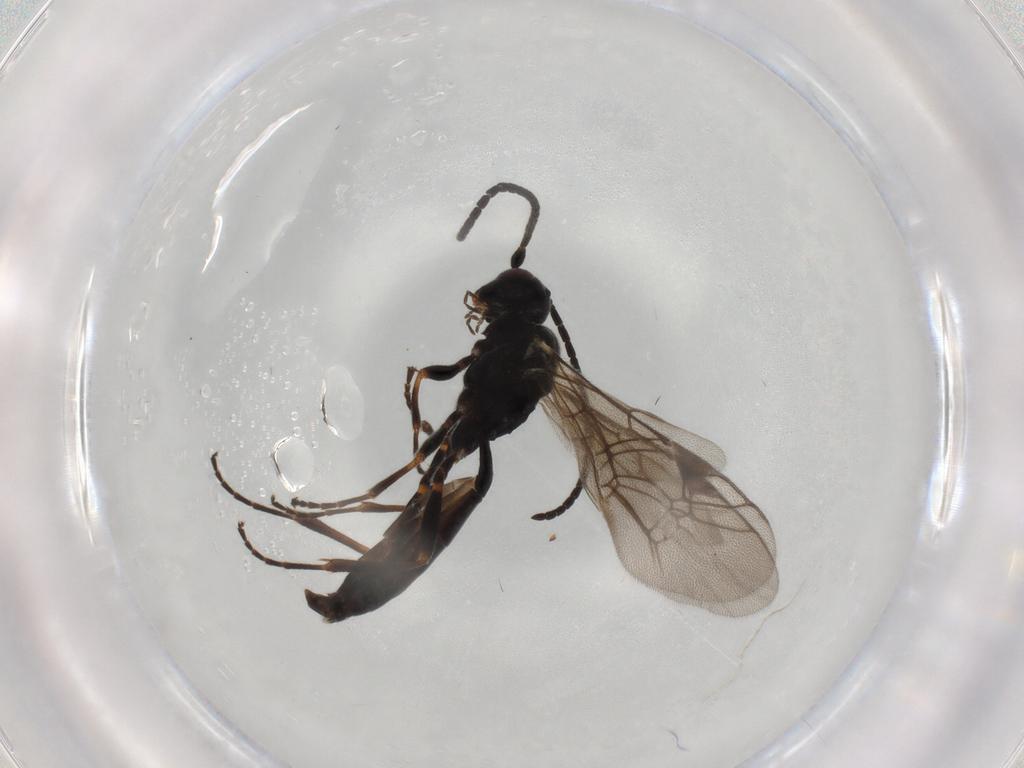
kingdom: Animalia
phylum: Arthropoda
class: Insecta
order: Hymenoptera
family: Ichneumonidae
